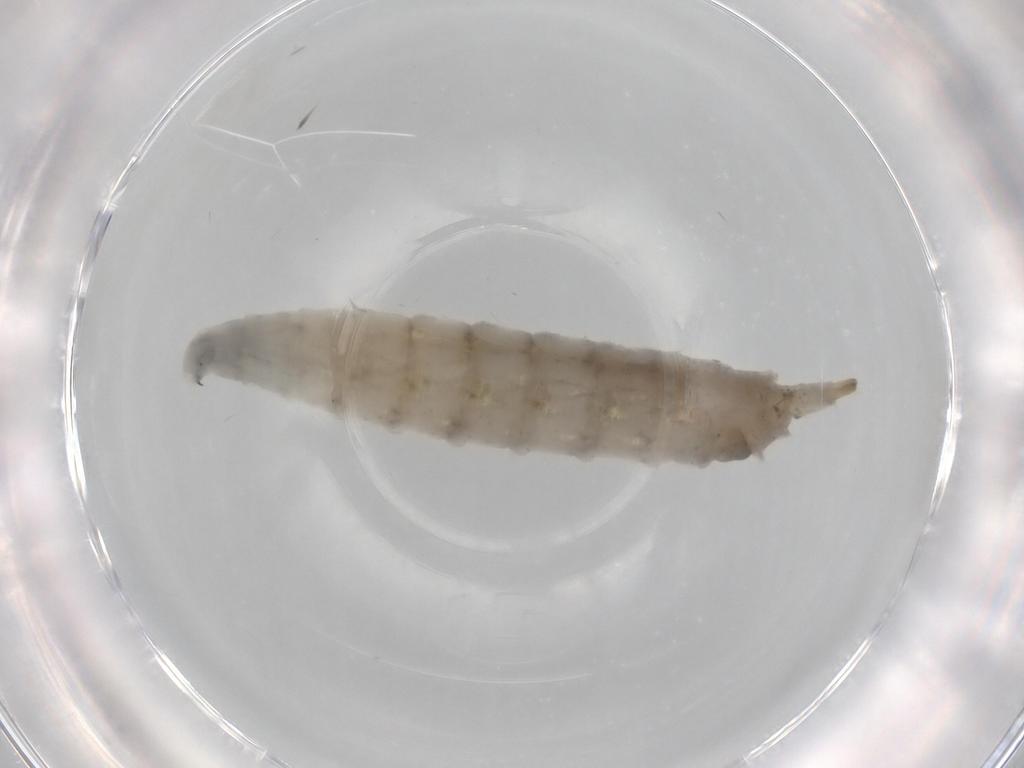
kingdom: Animalia
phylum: Arthropoda
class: Insecta
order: Diptera
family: Drosophilidae
